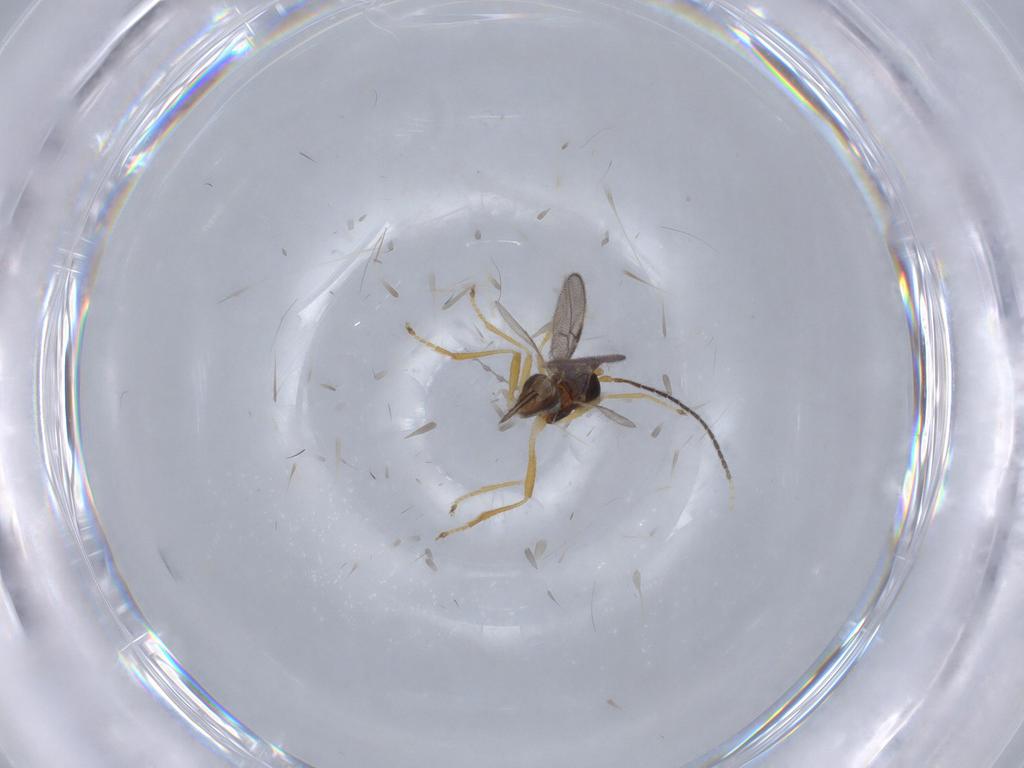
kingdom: Animalia
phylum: Arthropoda
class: Insecta
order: Hymenoptera
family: Braconidae
